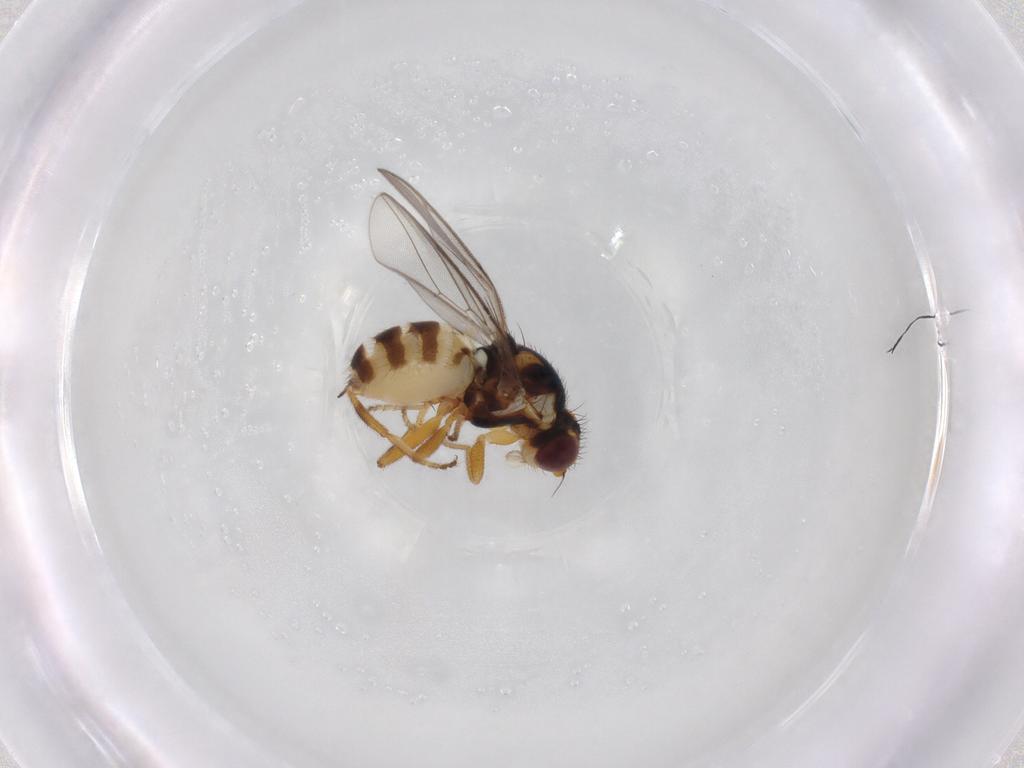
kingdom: Animalia
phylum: Arthropoda
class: Insecta
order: Diptera
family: Chloropidae
